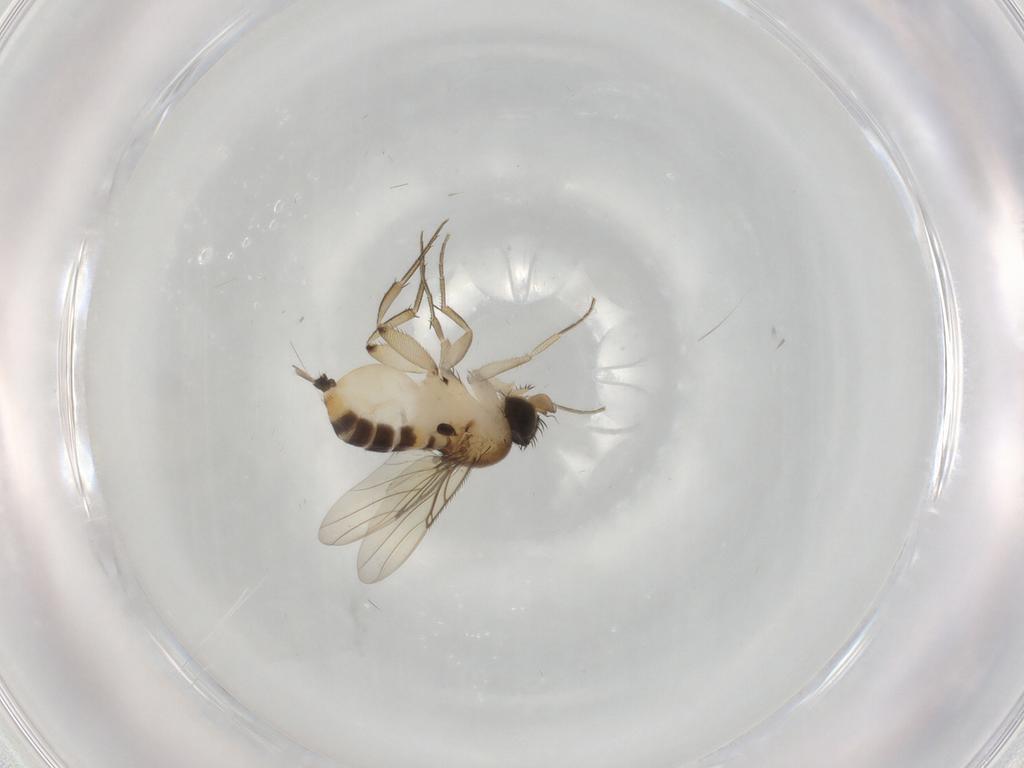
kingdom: Animalia
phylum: Arthropoda
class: Insecta
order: Diptera
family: Phoridae
